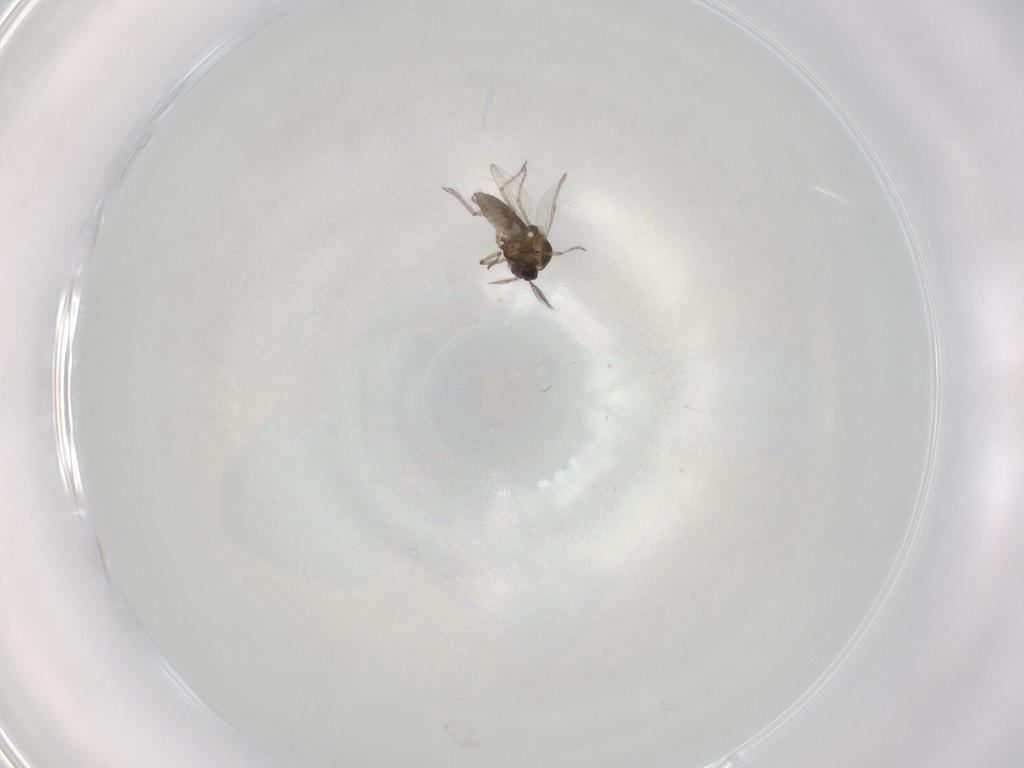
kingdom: Animalia
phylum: Arthropoda
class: Insecta
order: Diptera
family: Ceratopogonidae
